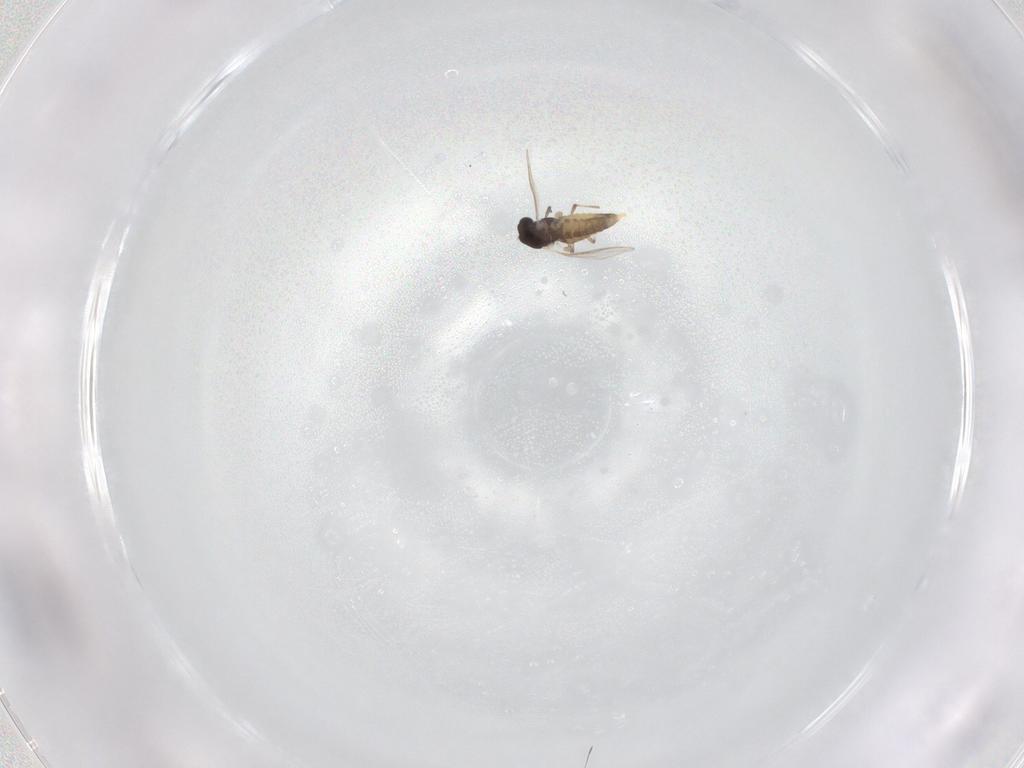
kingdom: Animalia
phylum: Arthropoda
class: Insecta
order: Diptera
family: Chironomidae
